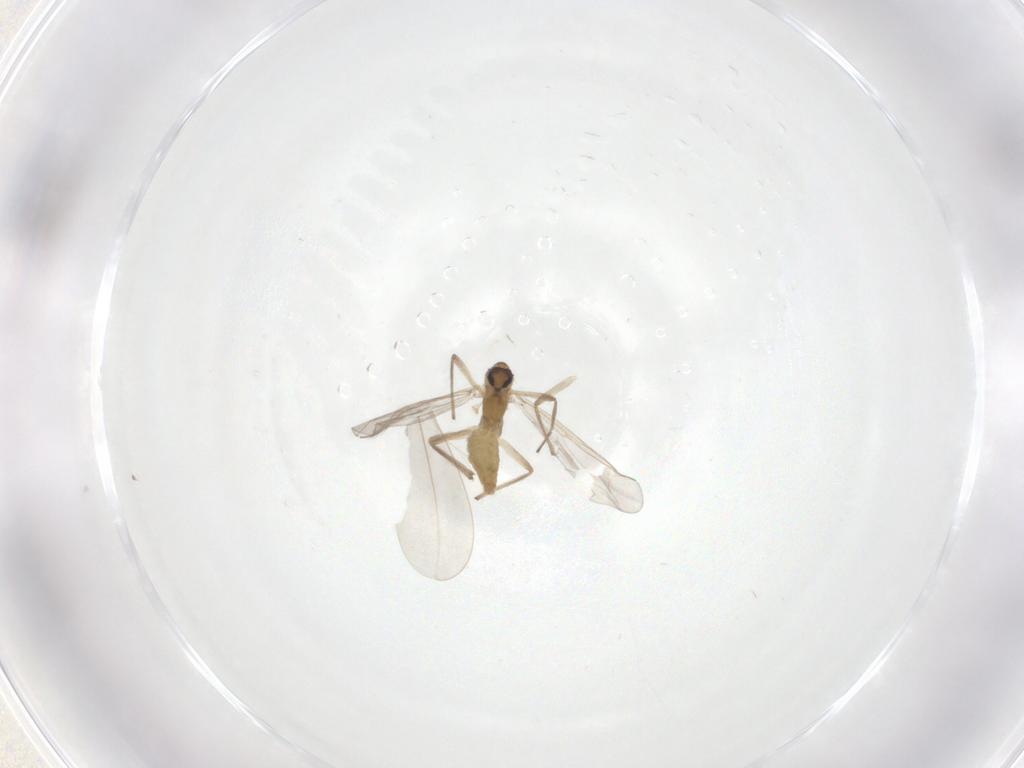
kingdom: Animalia
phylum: Arthropoda
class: Insecta
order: Diptera
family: Chironomidae
